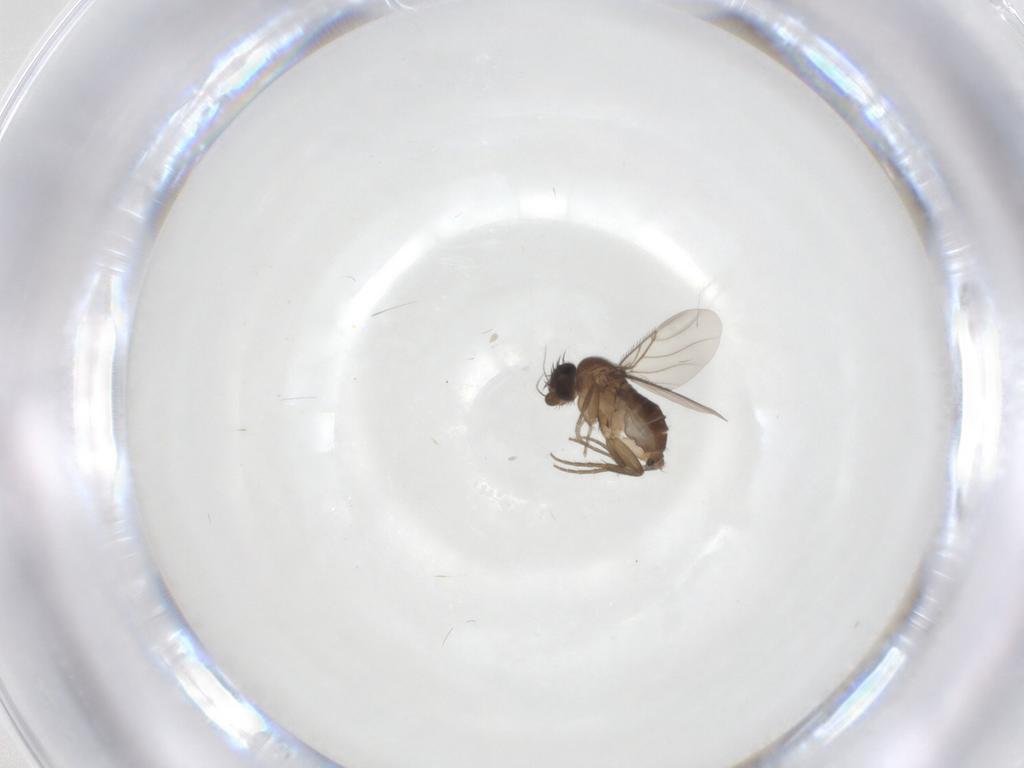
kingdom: Animalia
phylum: Arthropoda
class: Insecta
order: Diptera
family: Phoridae
